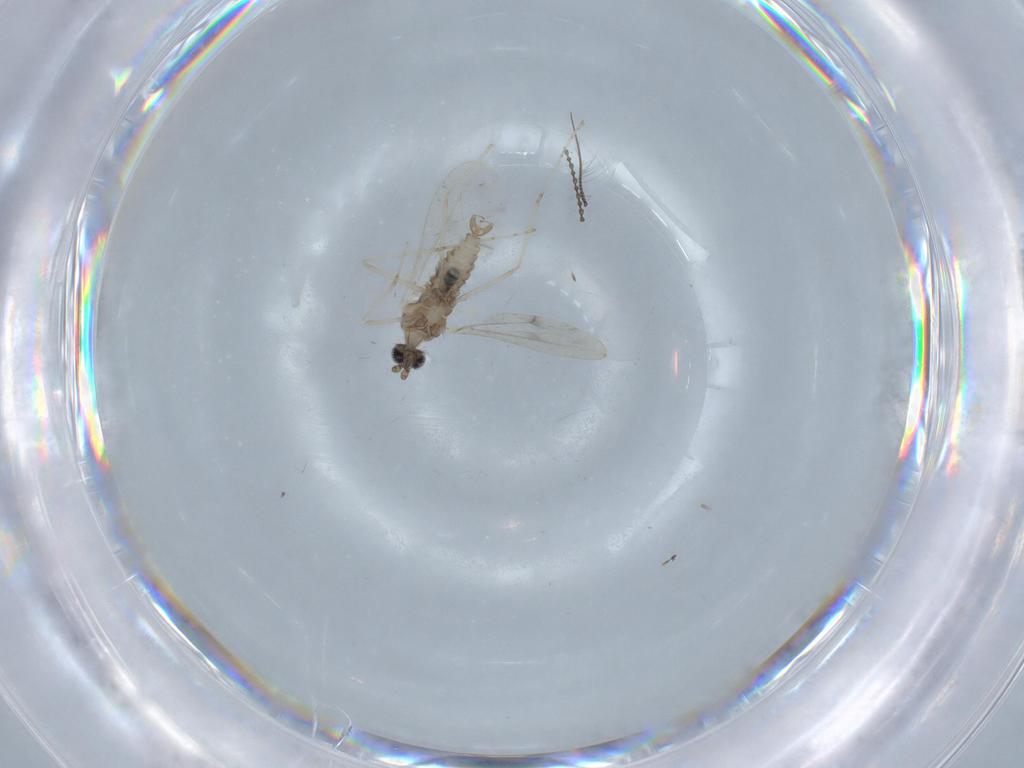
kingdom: Animalia
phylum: Arthropoda
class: Insecta
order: Diptera
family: Cecidomyiidae
